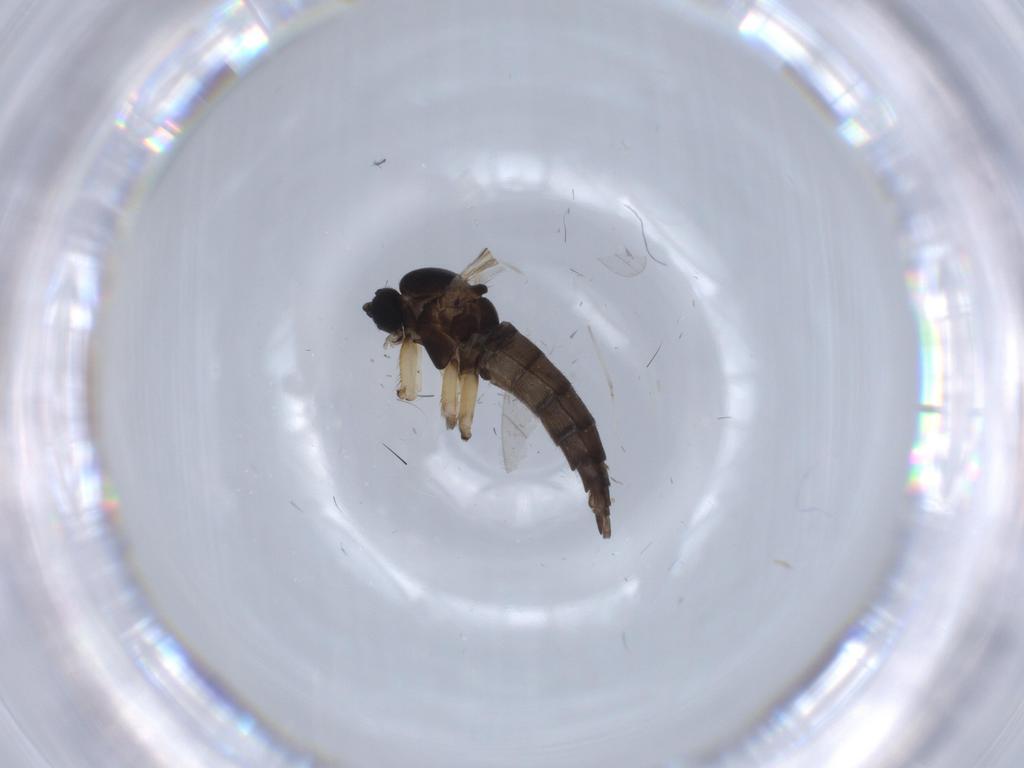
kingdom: Animalia
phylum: Arthropoda
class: Insecta
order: Diptera
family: Sciaridae
